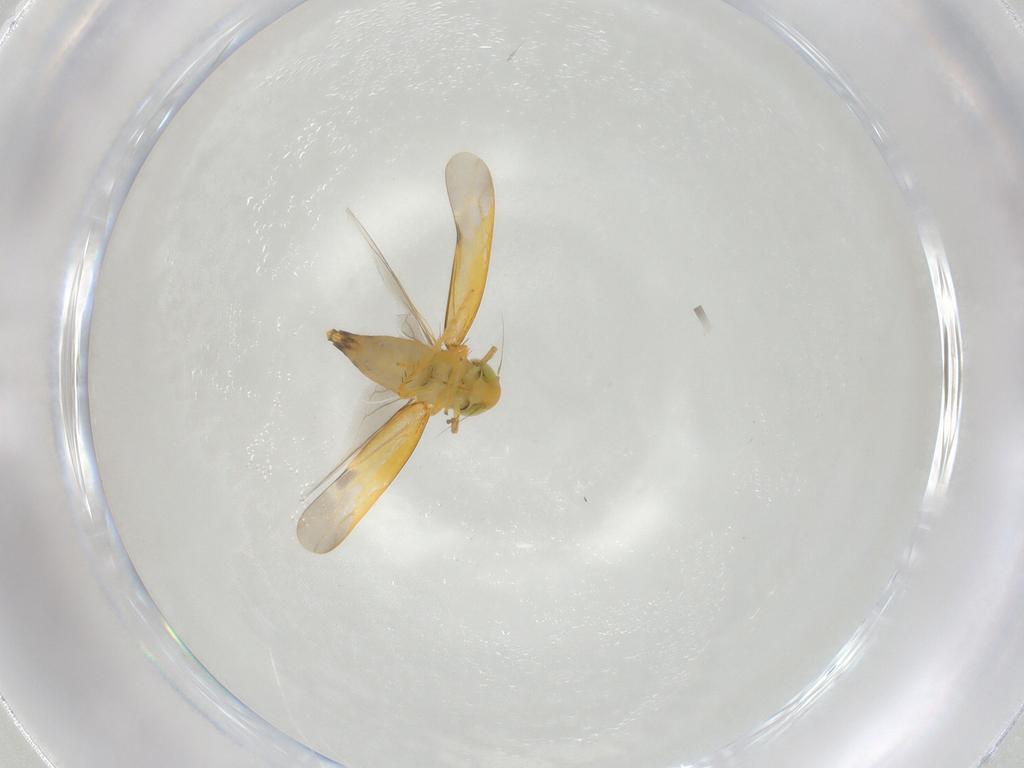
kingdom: Animalia
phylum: Arthropoda
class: Insecta
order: Hemiptera
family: Cicadellidae
